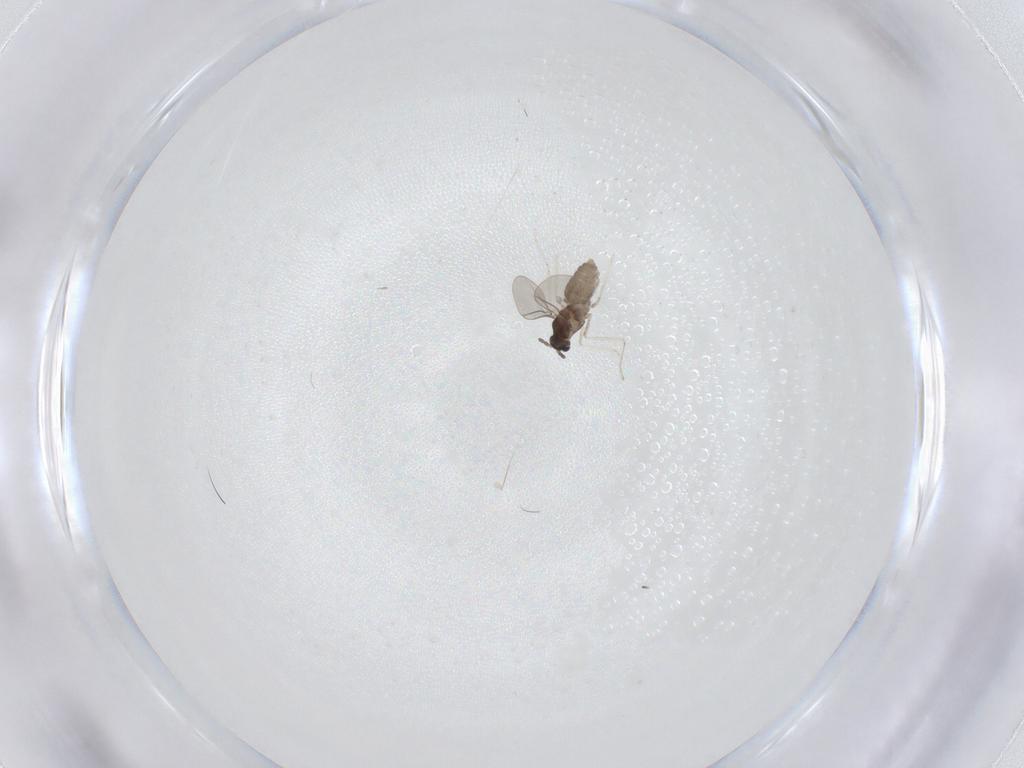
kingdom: Animalia
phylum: Arthropoda
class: Insecta
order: Diptera
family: Cecidomyiidae
